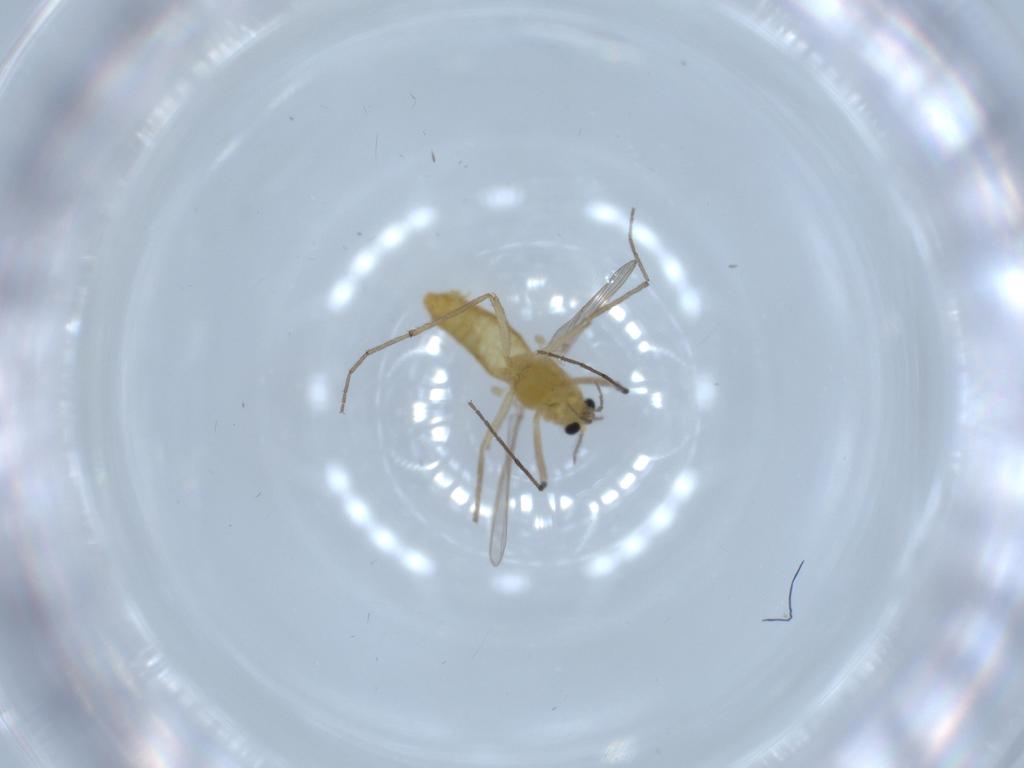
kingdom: Animalia
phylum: Arthropoda
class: Insecta
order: Diptera
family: Chironomidae
